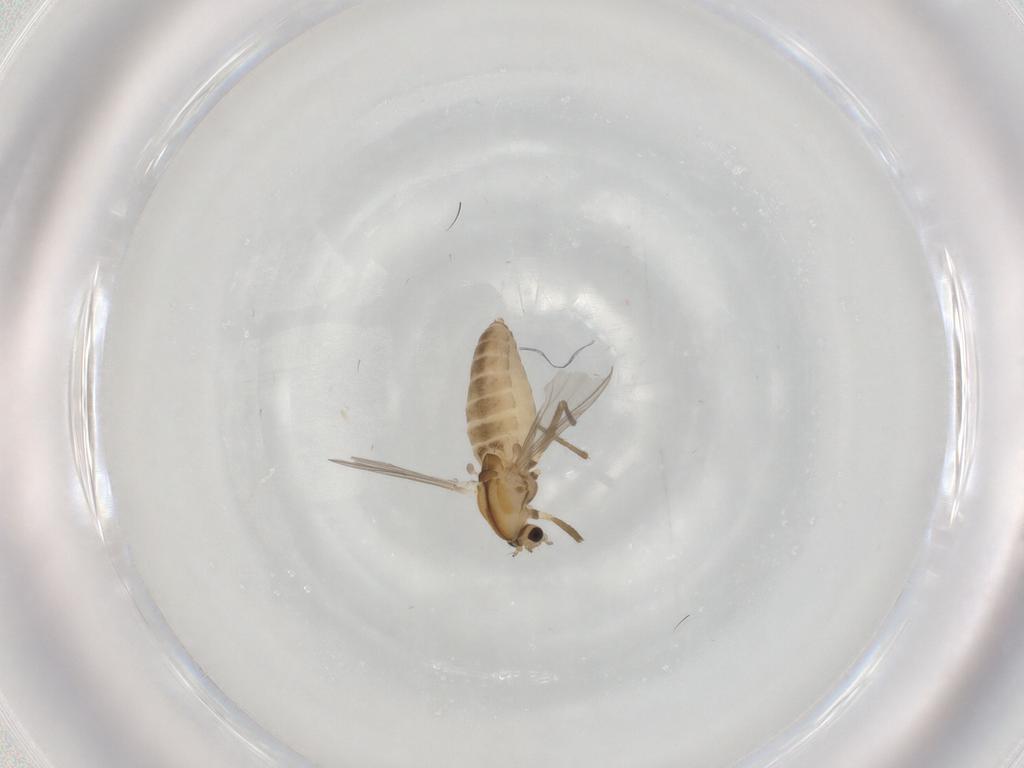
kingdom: Animalia
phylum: Arthropoda
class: Insecta
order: Diptera
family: Chironomidae
